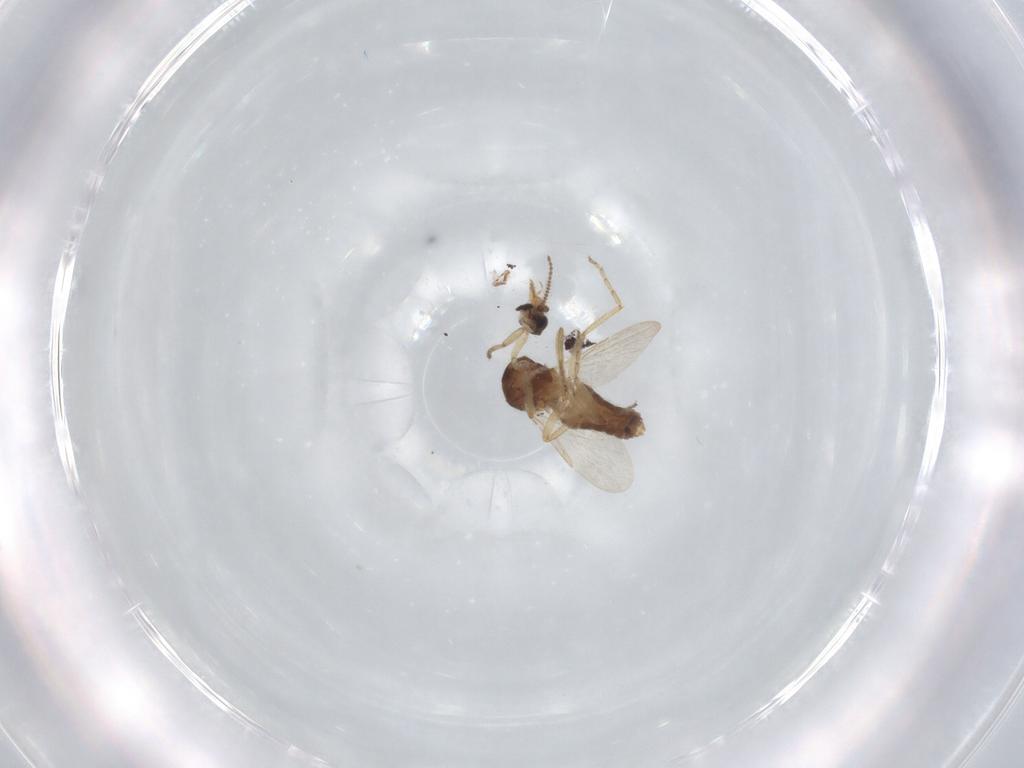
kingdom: Animalia
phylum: Arthropoda
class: Insecta
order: Diptera
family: Ceratopogonidae
